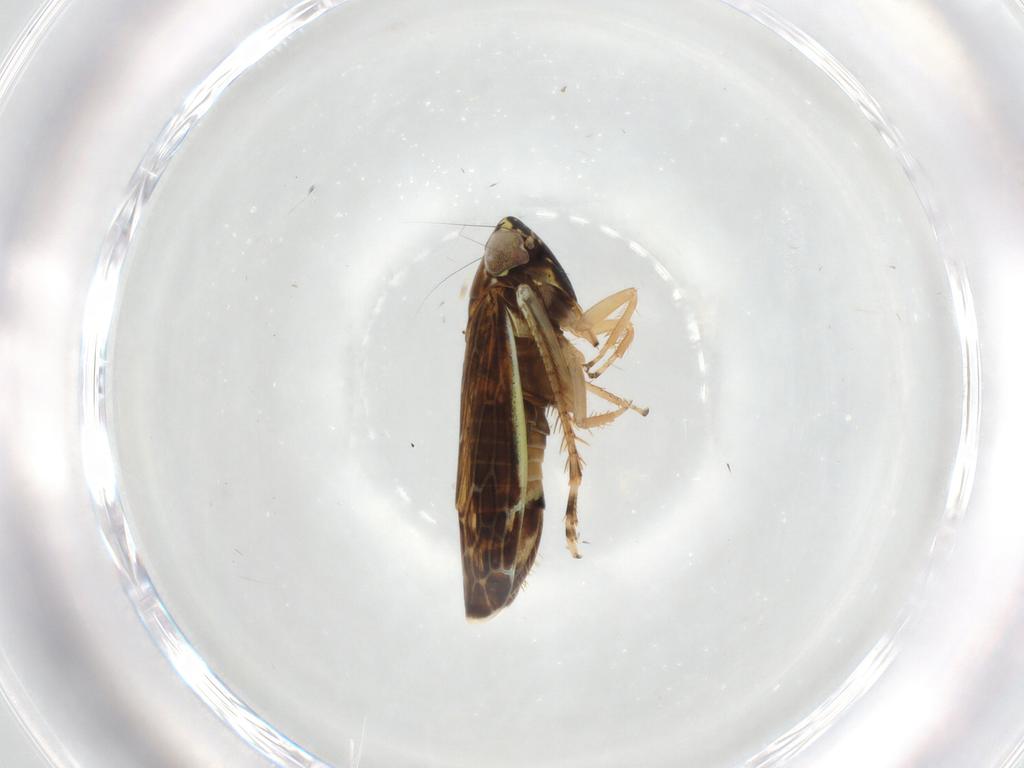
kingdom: Animalia
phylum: Arthropoda
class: Insecta
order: Hemiptera
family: Cicadellidae
